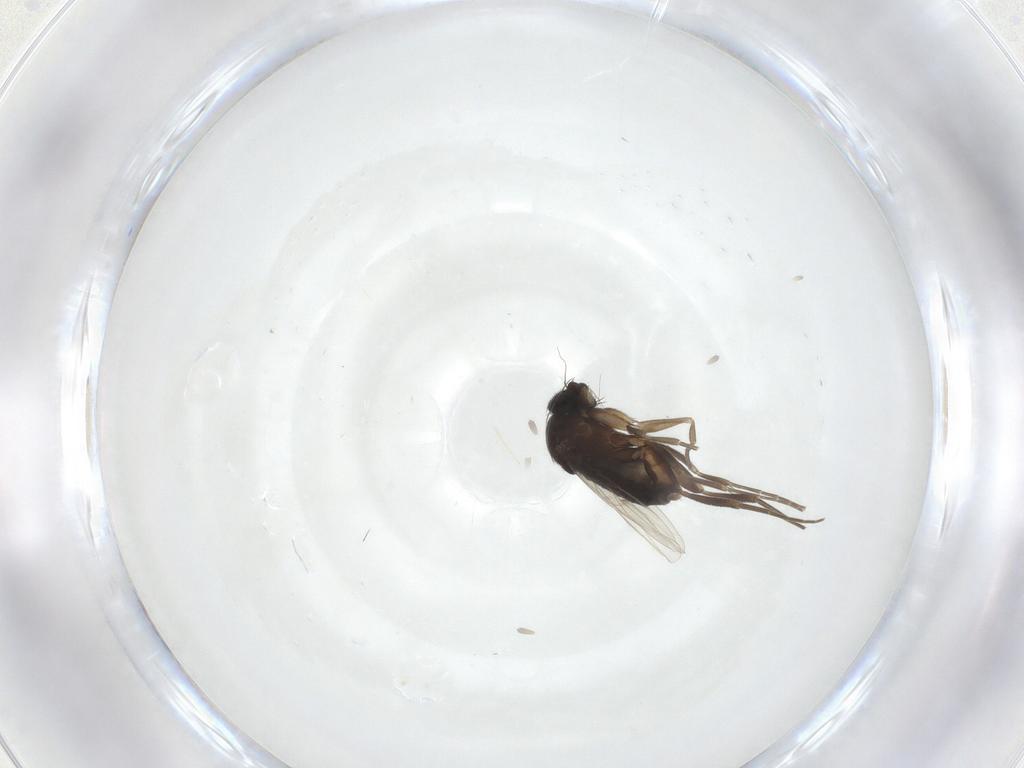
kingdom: Animalia
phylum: Arthropoda
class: Insecta
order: Diptera
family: Phoridae
